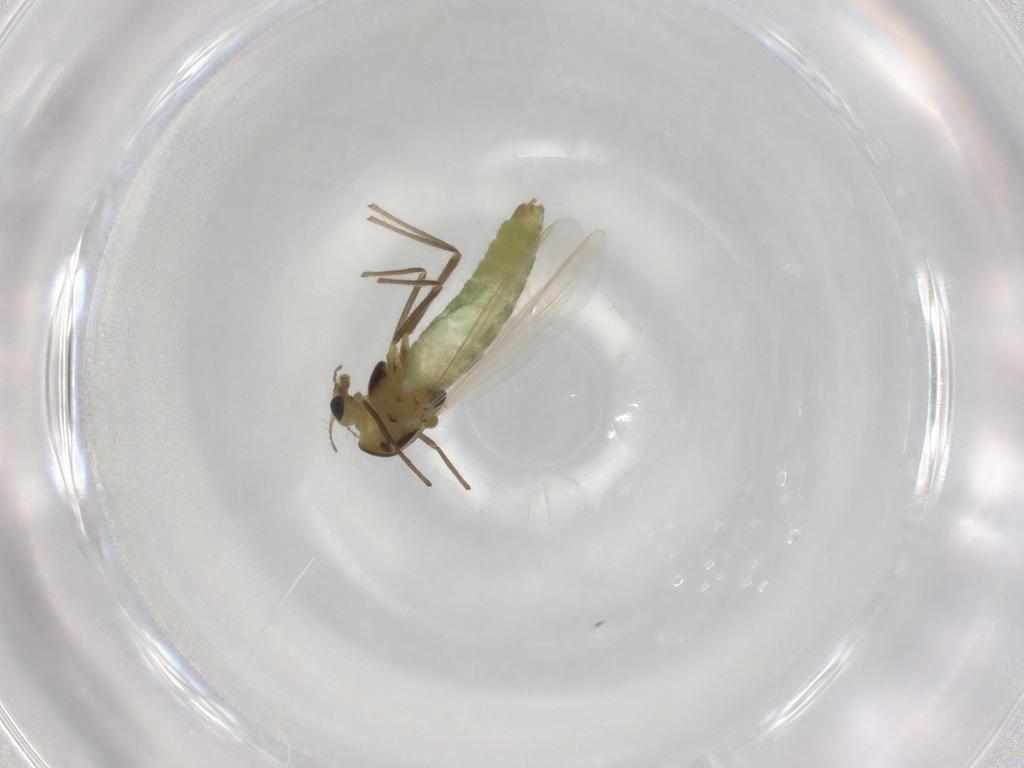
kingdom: Animalia
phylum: Arthropoda
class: Insecta
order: Diptera
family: Chironomidae
